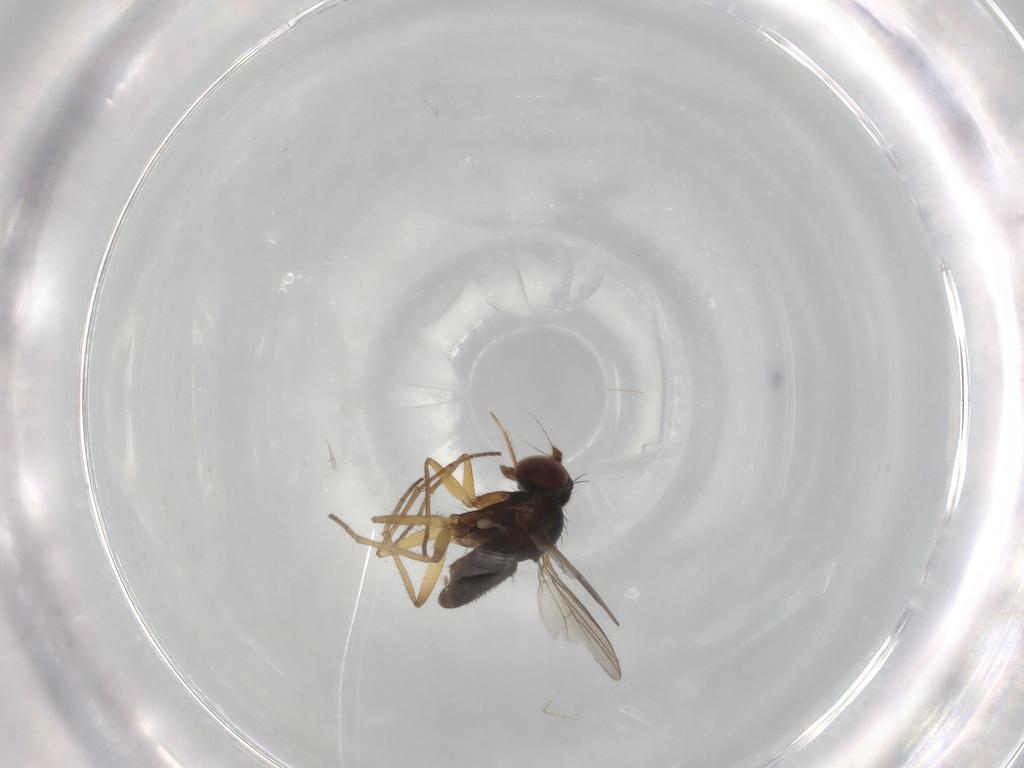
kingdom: Animalia
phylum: Arthropoda
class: Insecta
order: Diptera
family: Dolichopodidae
